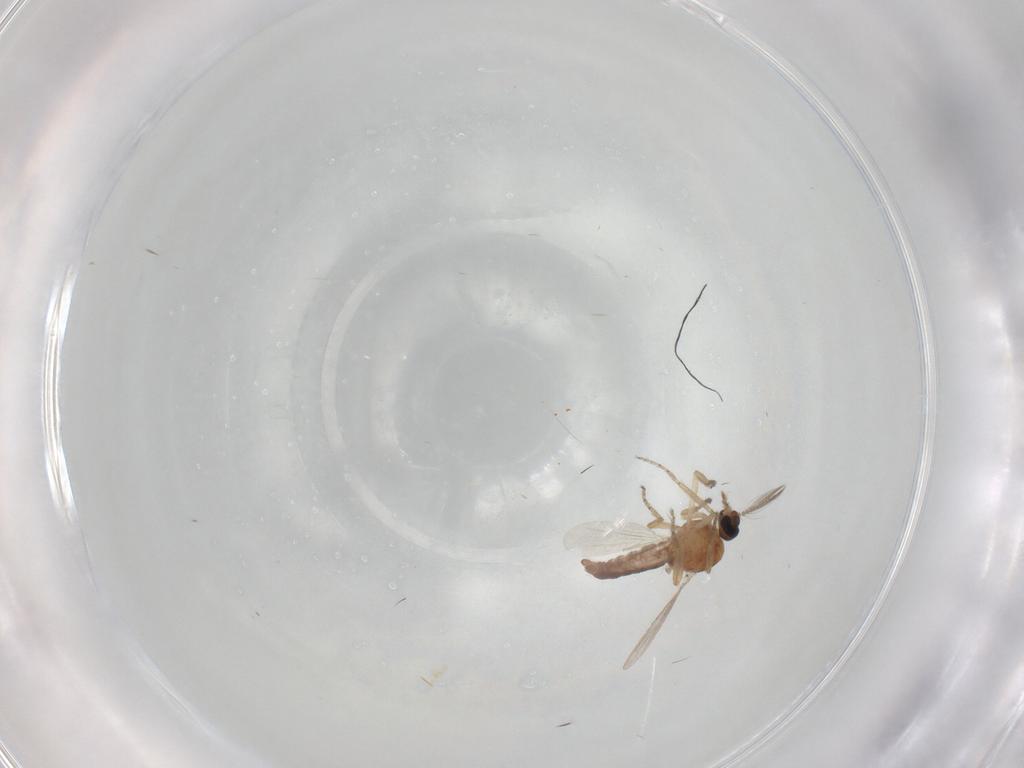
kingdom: Animalia
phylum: Arthropoda
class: Insecta
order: Diptera
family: Ceratopogonidae
